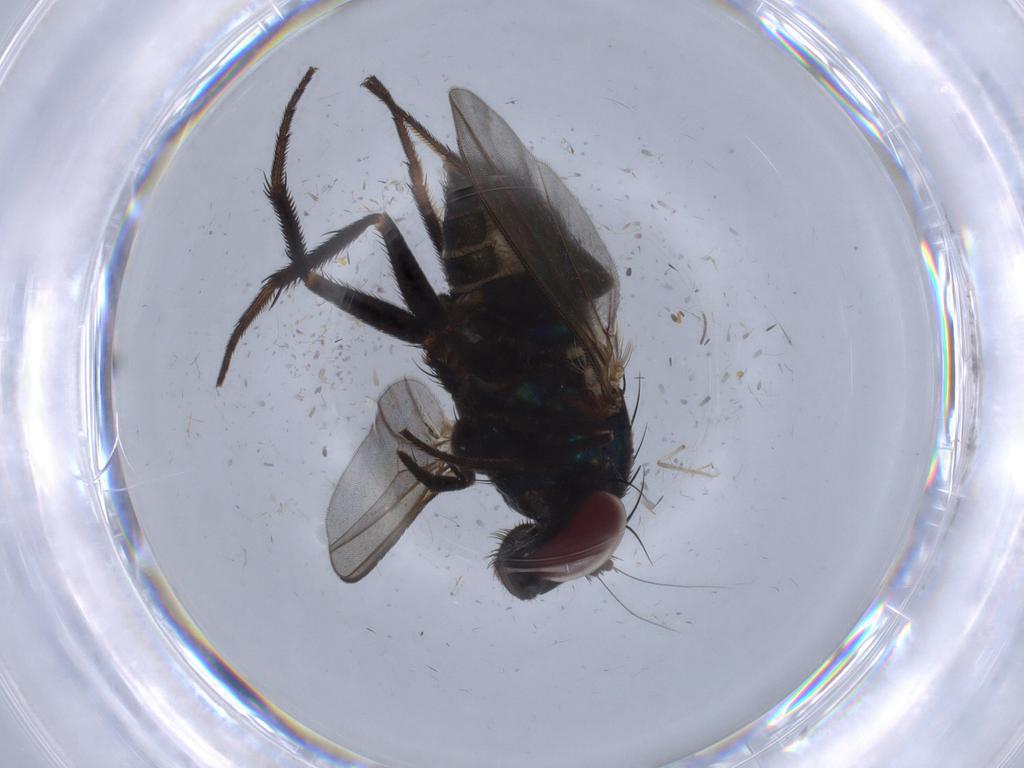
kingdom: Animalia
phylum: Arthropoda
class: Insecta
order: Diptera
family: Dolichopodidae
